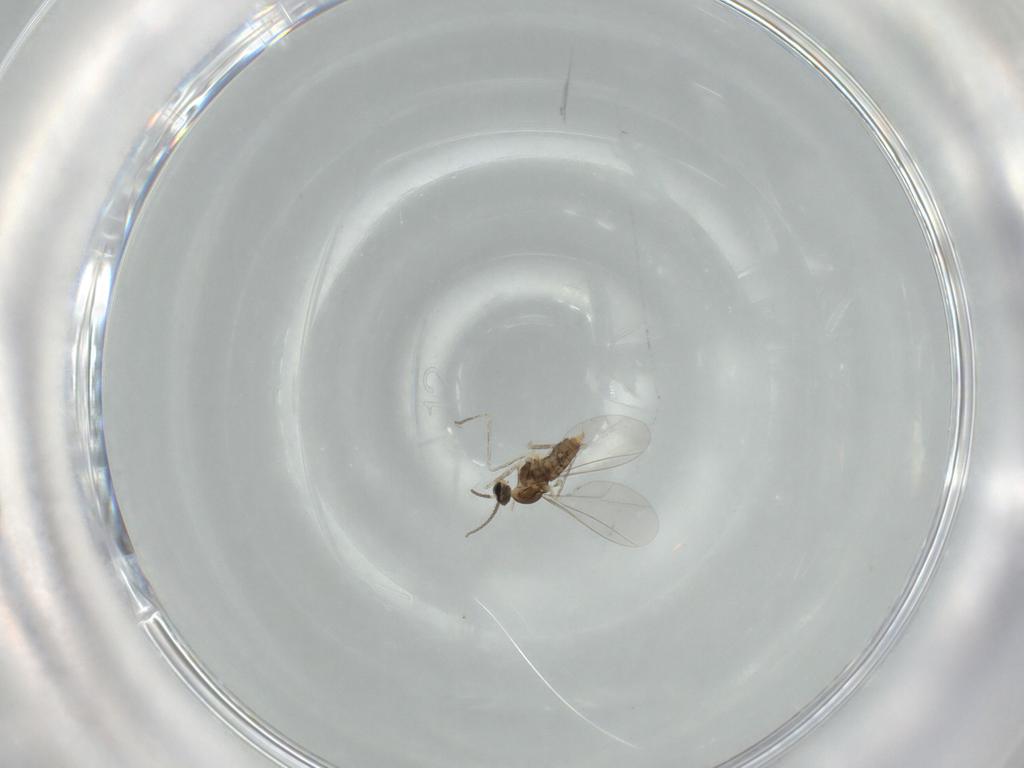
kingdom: Animalia
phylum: Arthropoda
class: Insecta
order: Diptera
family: Cecidomyiidae
